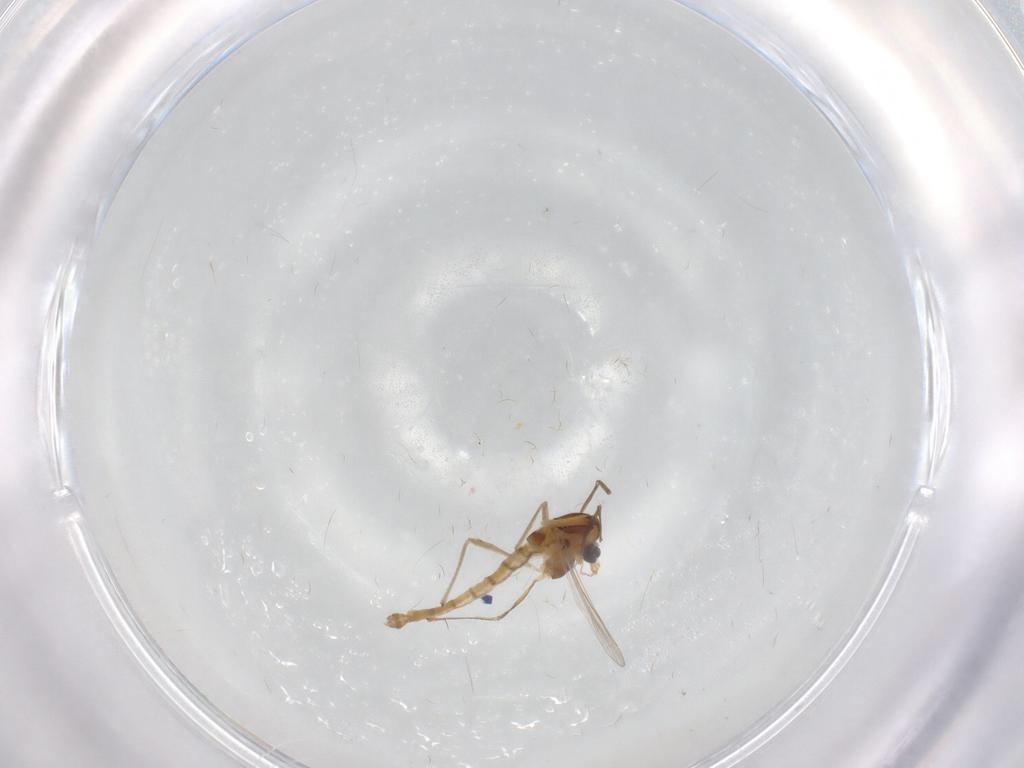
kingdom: Animalia
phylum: Arthropoda
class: Insecta
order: Diptera
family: Chironomidae
